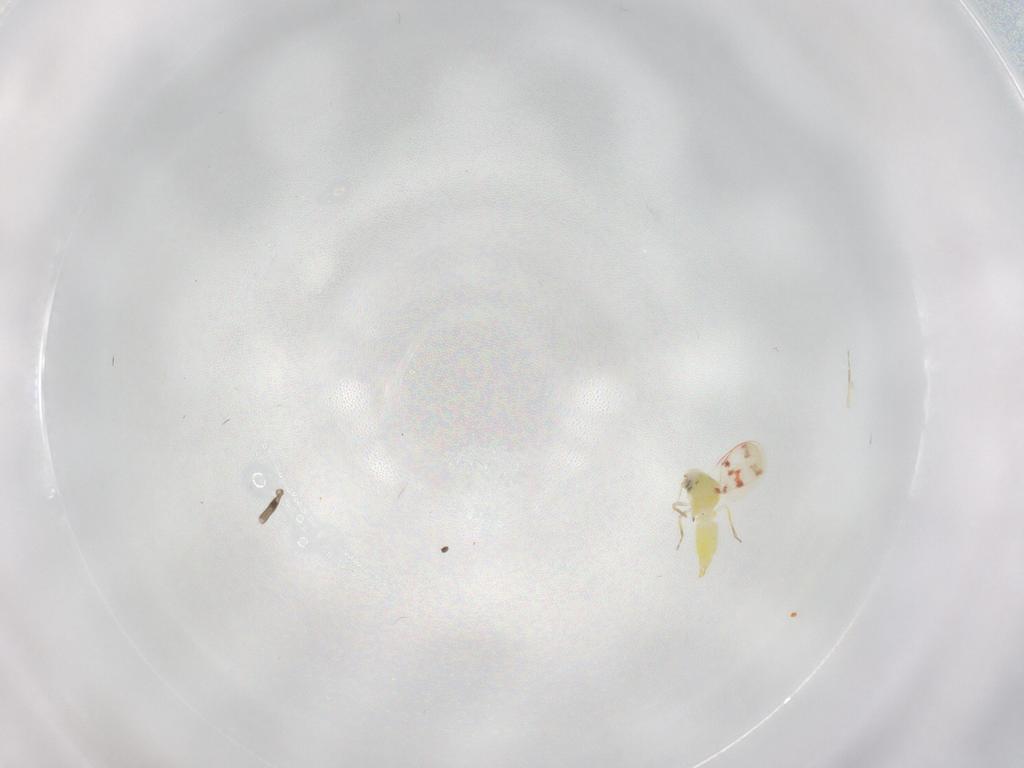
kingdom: Animalia
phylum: Arthropoda
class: Insecta
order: Hemiptera
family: Aleyrodidae
